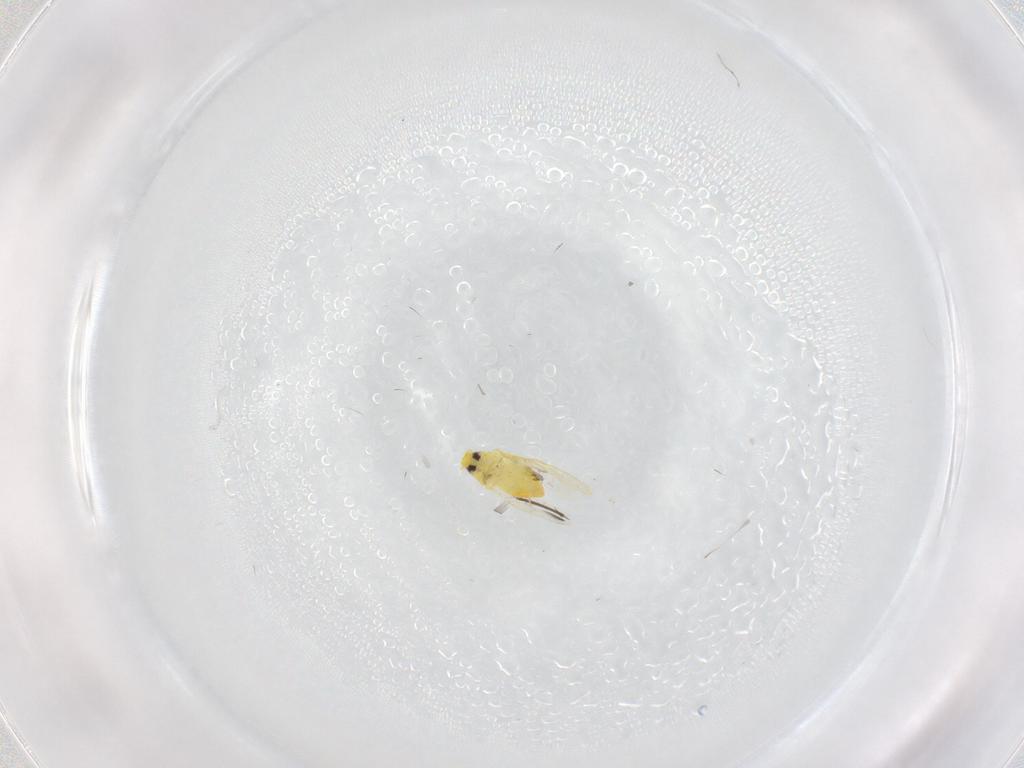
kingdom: Animalia
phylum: Arthropoda
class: Insecta
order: Hemiptera
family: Aleyrodidae
